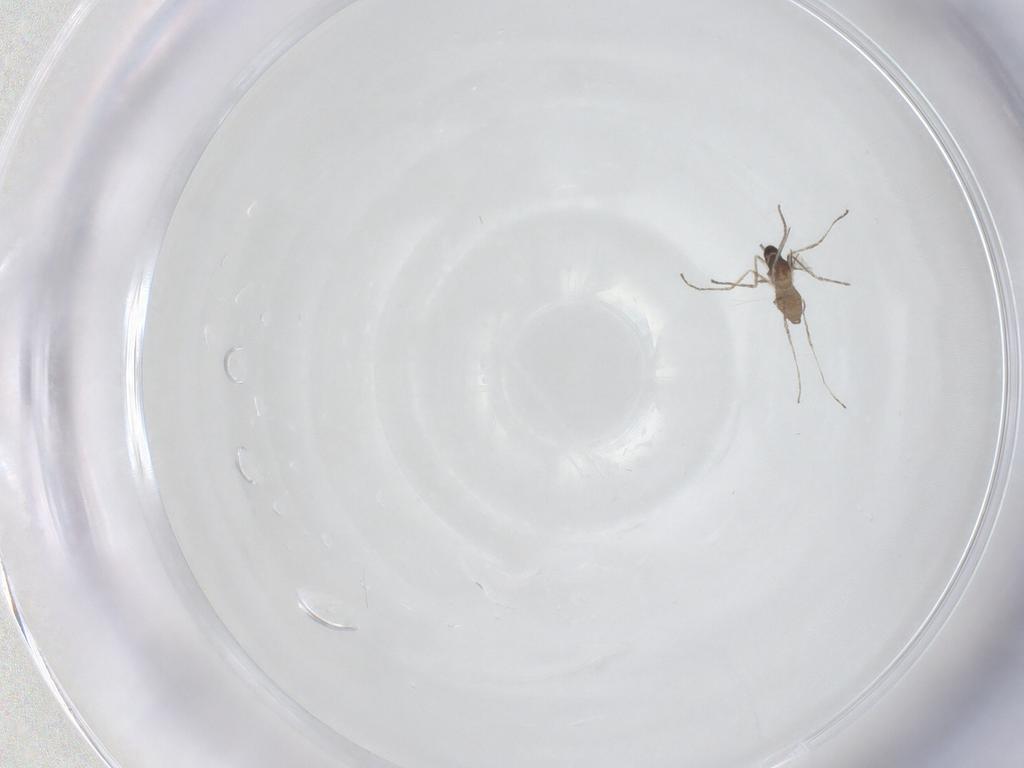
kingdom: Animalia
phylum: Arthropoda
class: Insecta
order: Diptera
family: Cecidomyiidae
